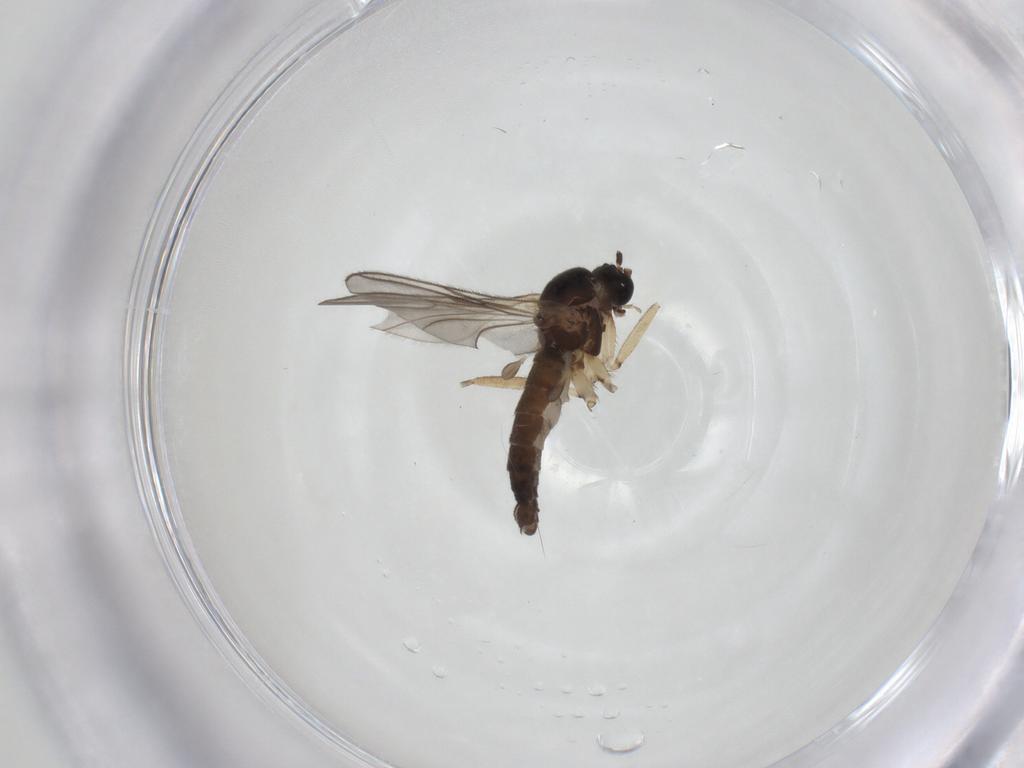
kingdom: Animalia
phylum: Arthropoda
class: Insecta
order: Diptera
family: Sciaridae
